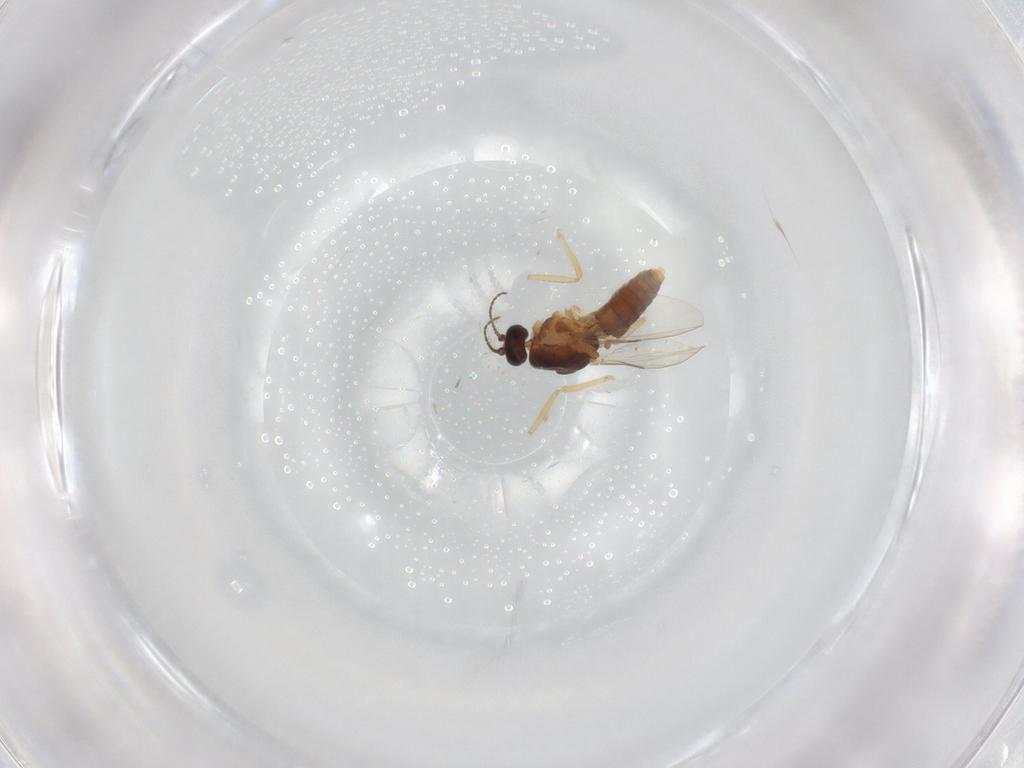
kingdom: Animalia
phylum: Arthropoda
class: Insecta
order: Diptera
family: Ceratopogonidae
